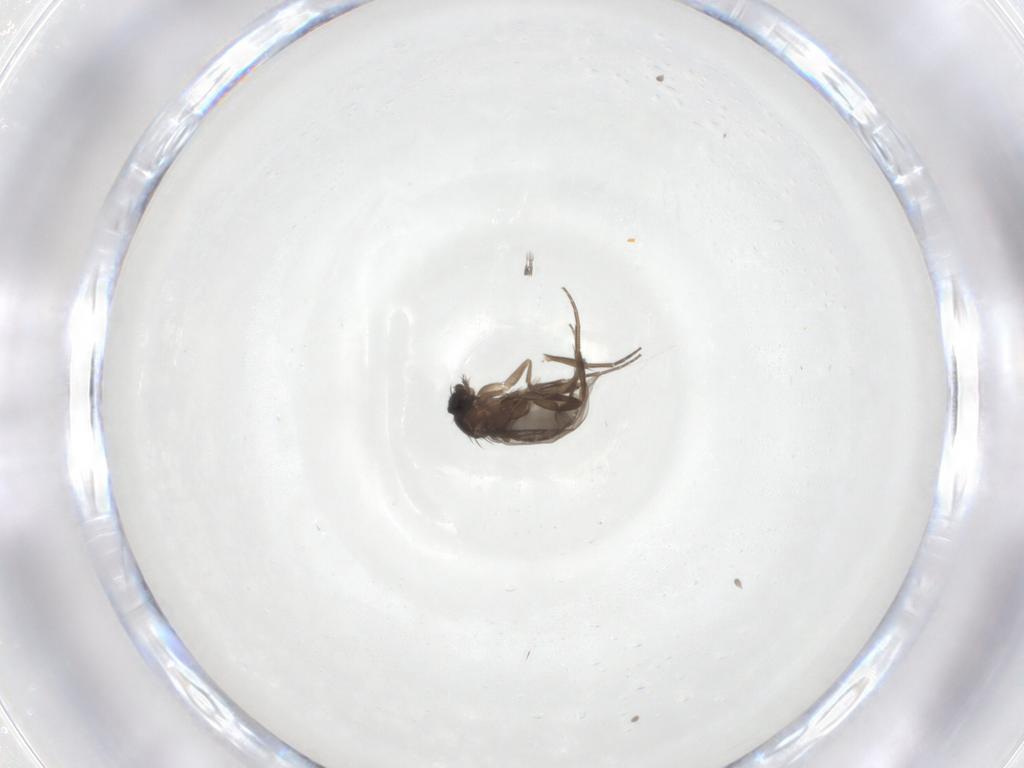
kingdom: Animalia
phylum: Arthropoda
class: Insecta
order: Diptera
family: Phoridae
